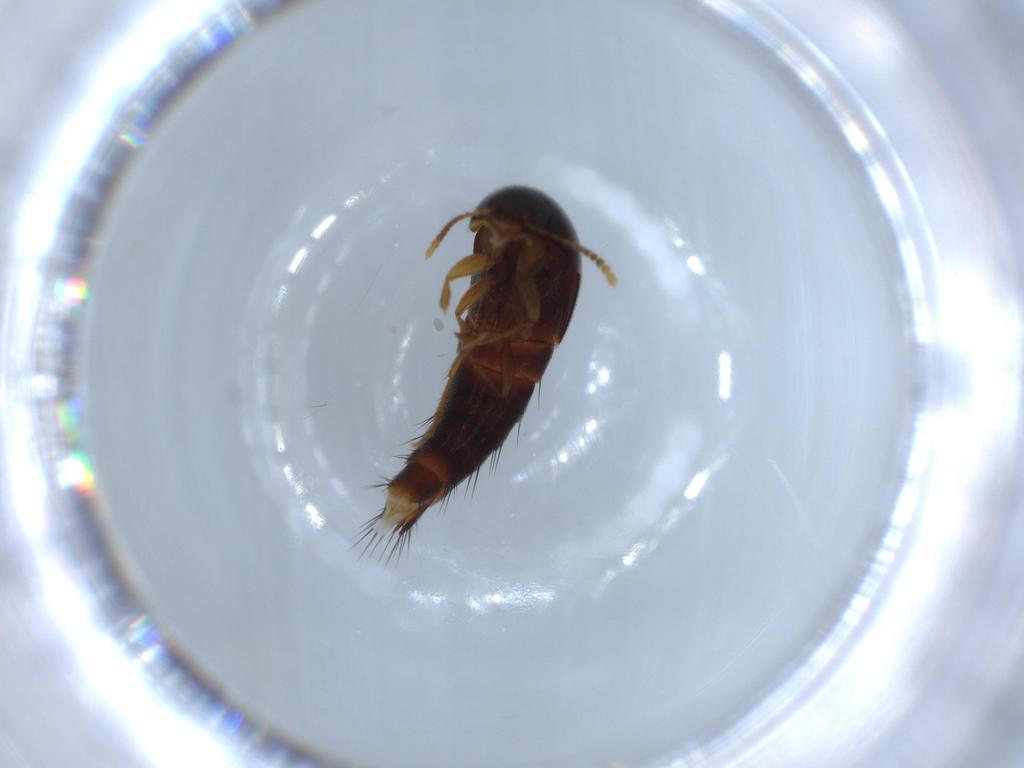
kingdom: Animalia
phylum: Arthropoda
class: Insecta
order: Coleoptera
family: Staphylinidae
